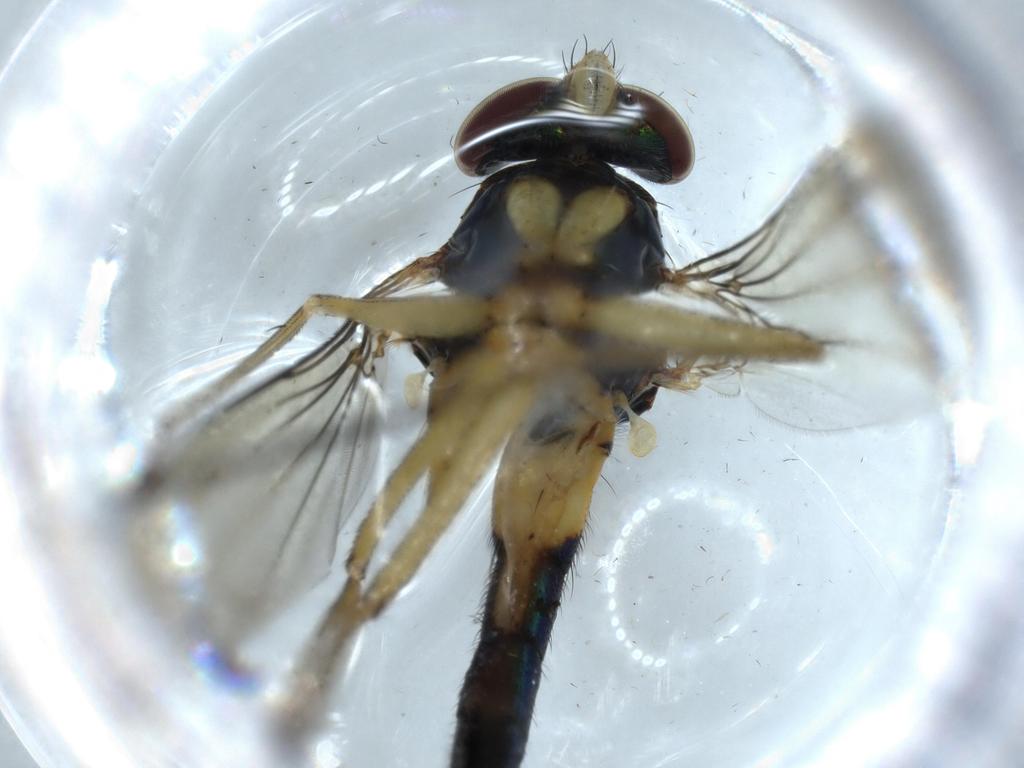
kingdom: Animalia
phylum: Arthropoda
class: Insecta
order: Diptera
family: Dolichopodidae
